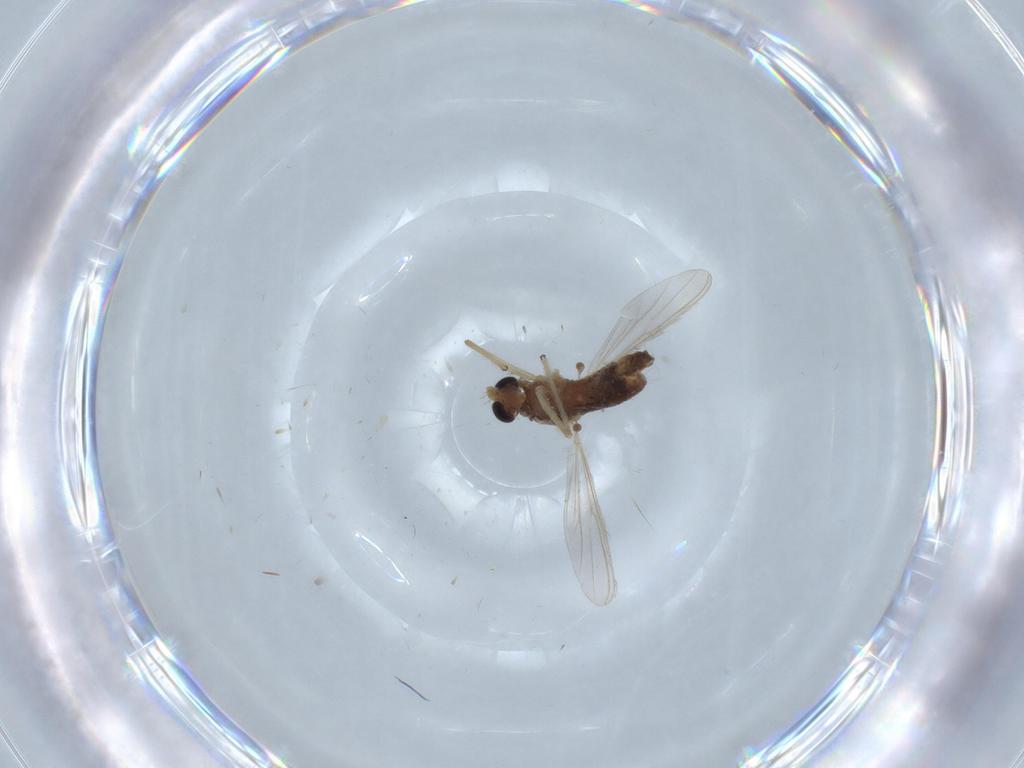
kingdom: Animalia
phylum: Arthropoda
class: Insecta
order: Diptera
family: Chironomidae
